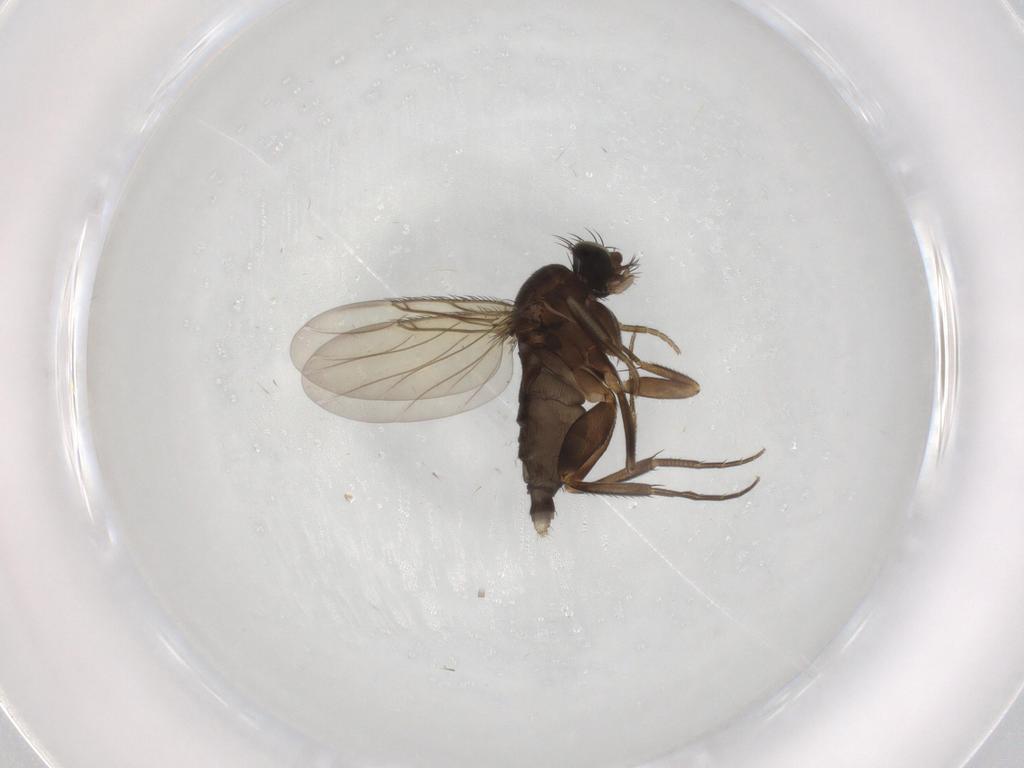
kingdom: Animalia
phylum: Arthropoda
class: Insecta
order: Diptera
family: Phoridae
